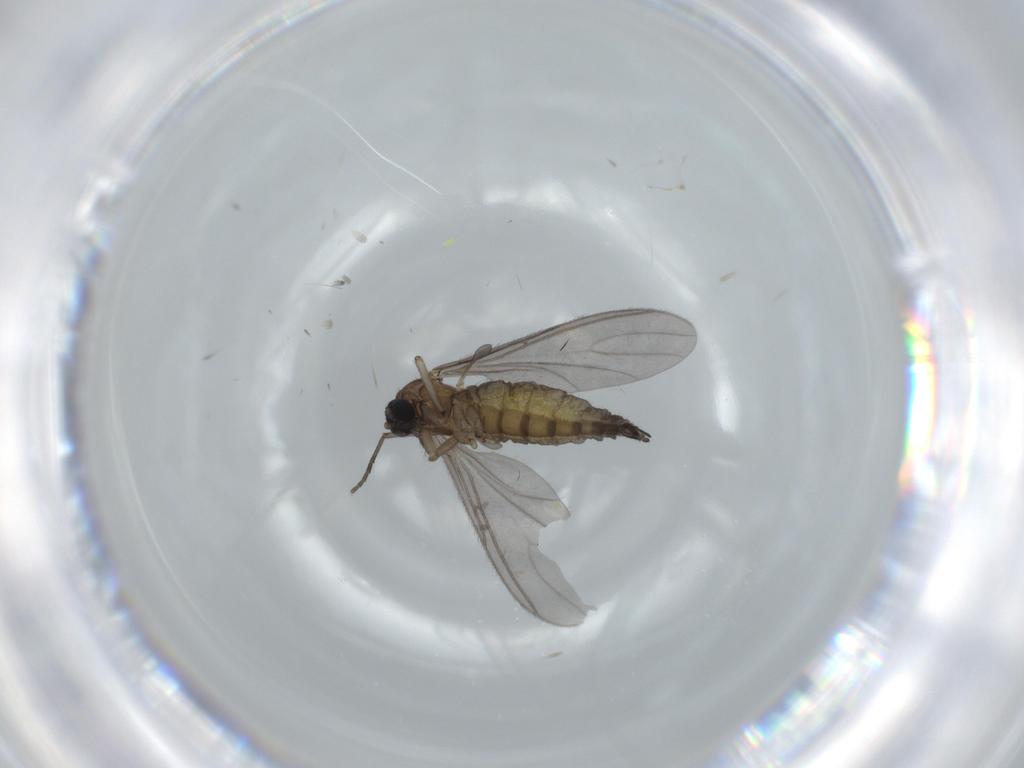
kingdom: Animalia
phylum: Arthropoda
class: Insecta
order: Diptera
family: Sciaridae
